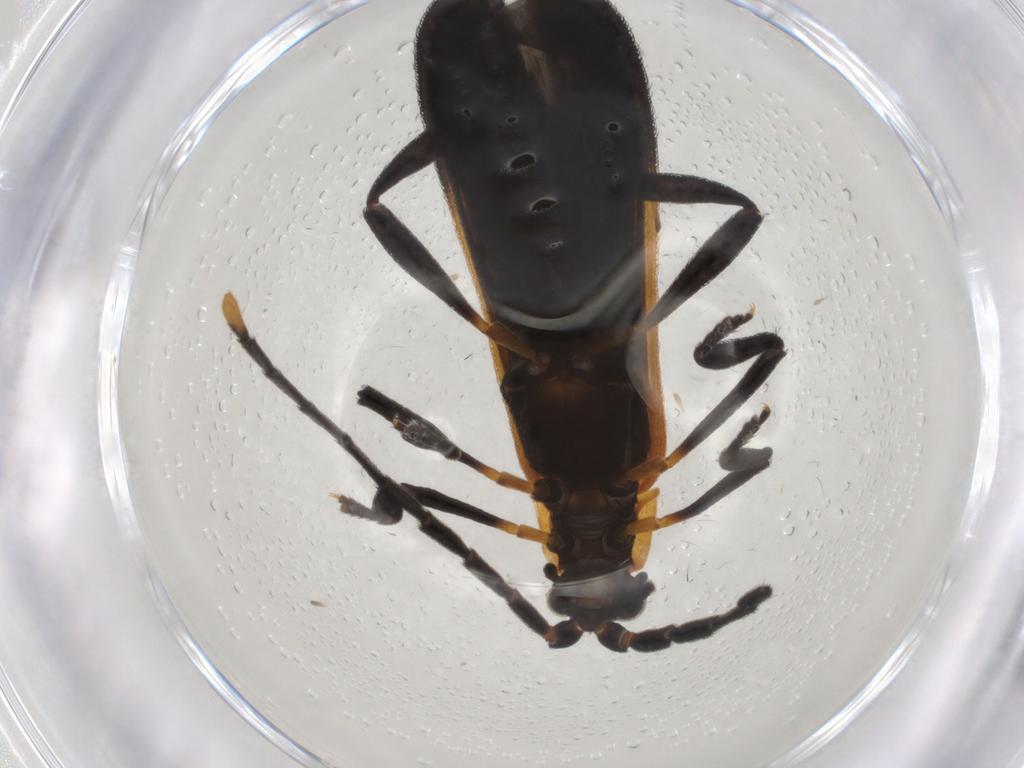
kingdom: Animalia
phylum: Arthropoda
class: Insecta
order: Coleoptera
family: Lycidae
